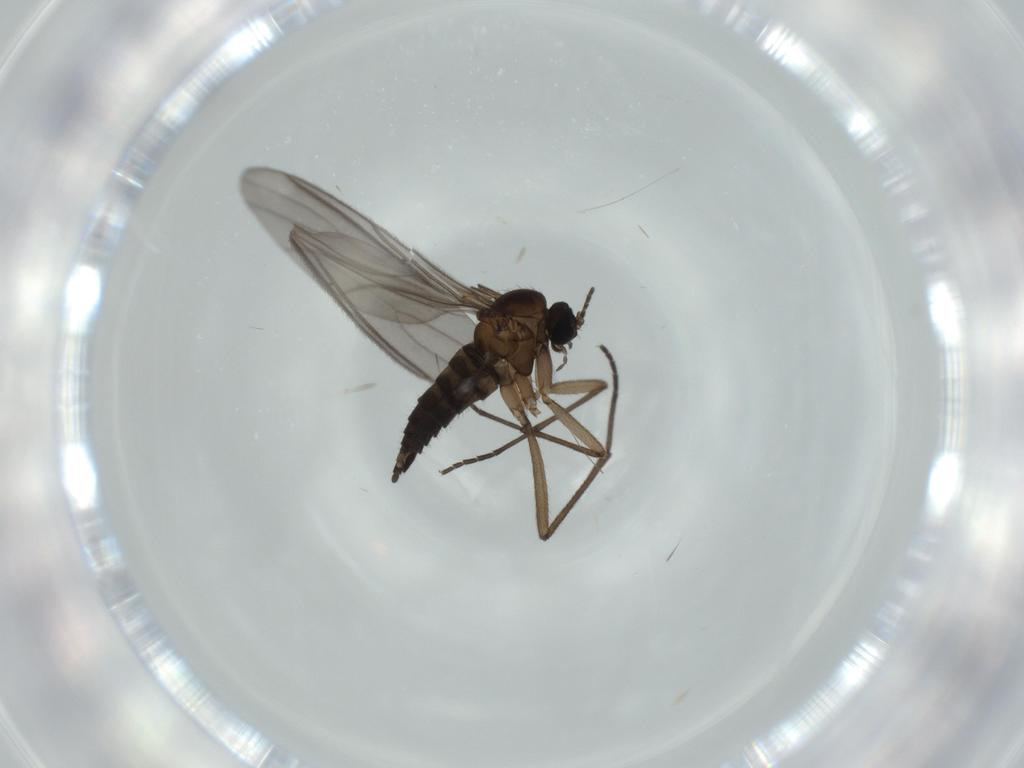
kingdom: Animalia
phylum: Arthropoda
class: Insecta
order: Diptera
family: Sciaridae
